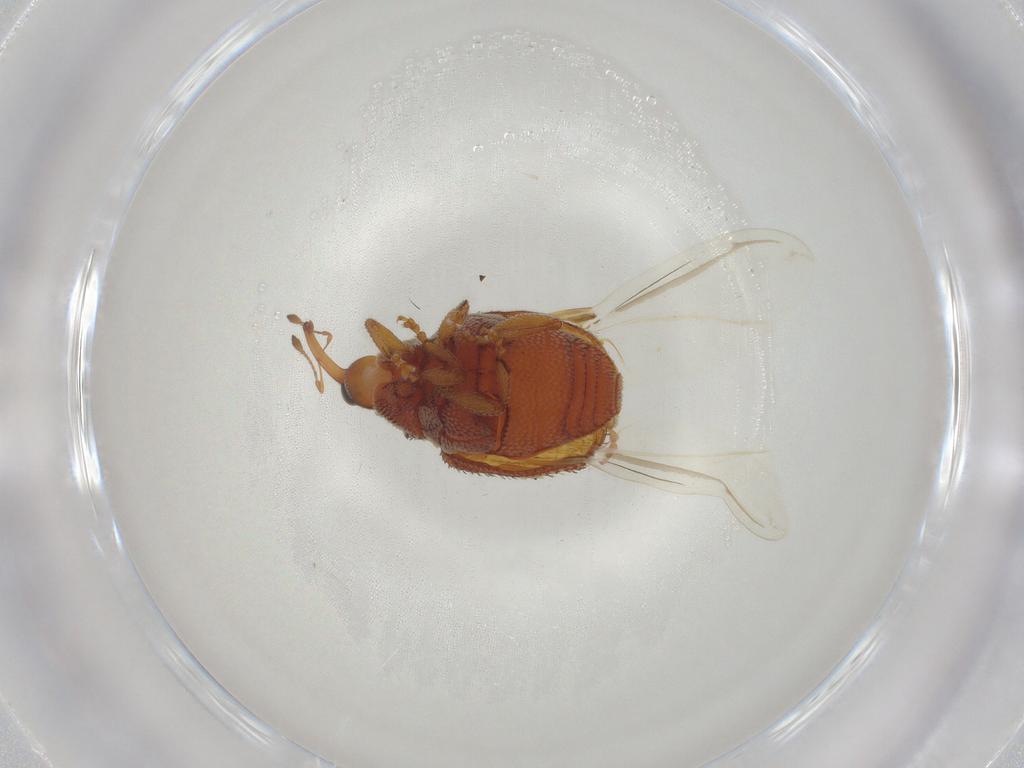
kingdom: Animalia
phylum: Arthropoda
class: Insecta
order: Coleoptera
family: Curculionidae
